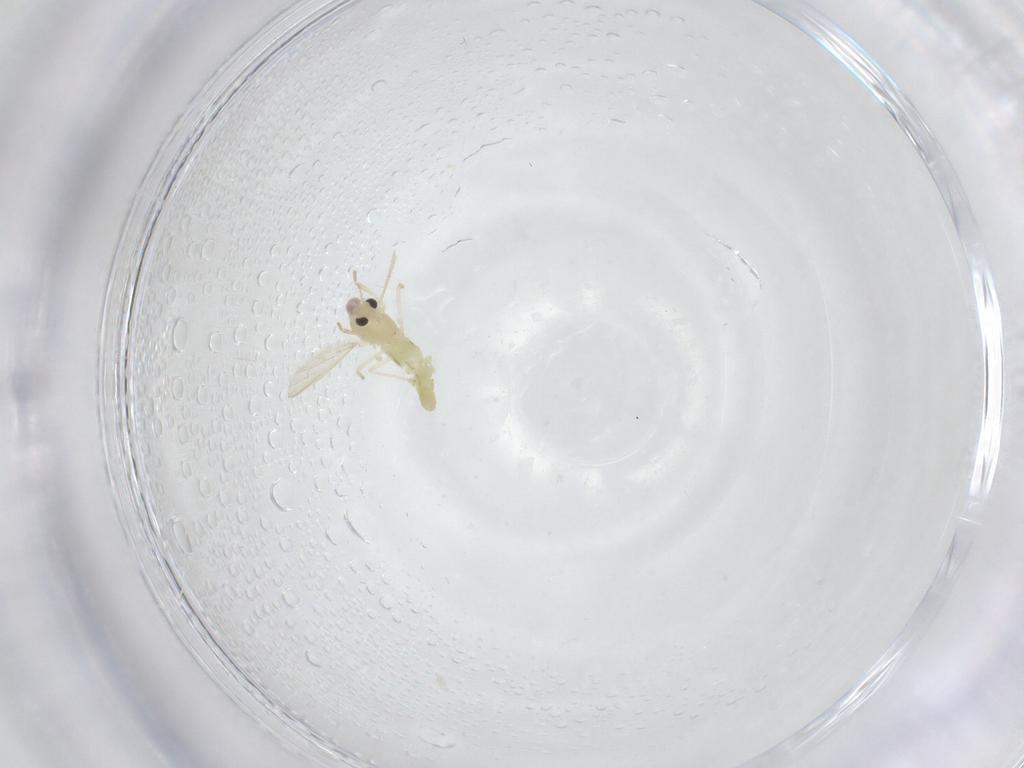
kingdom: Animalia
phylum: Arthropoda
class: Insecta
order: Diptera
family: Chironomidae
